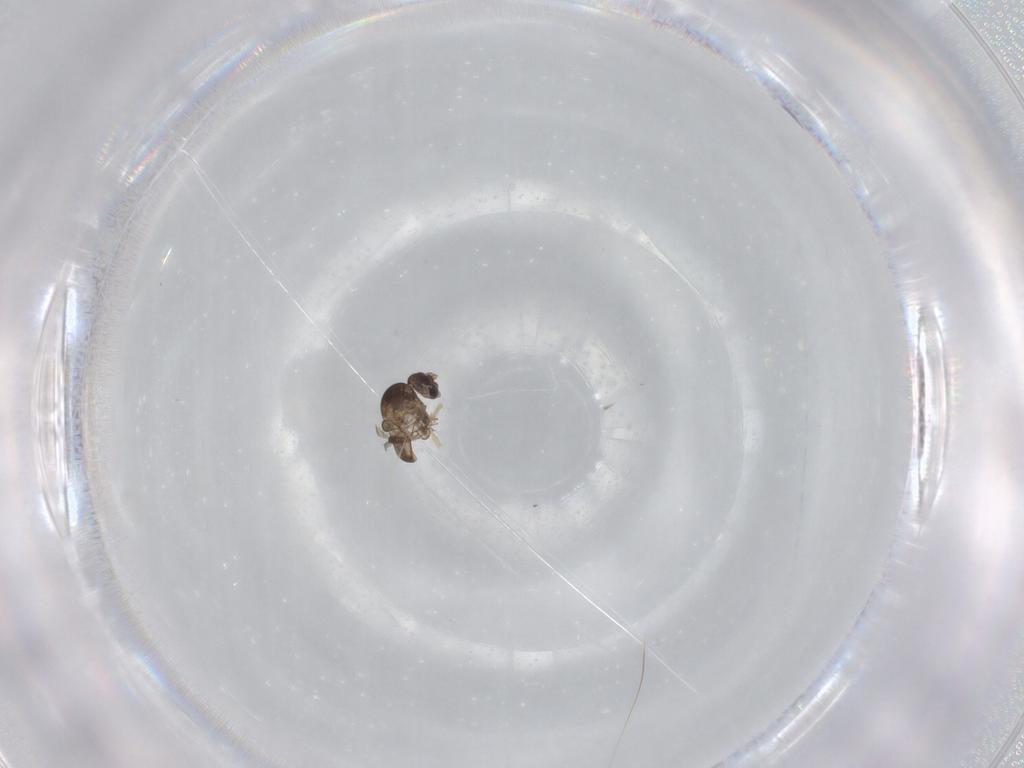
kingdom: Animalia
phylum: Arthropoda
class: Insecta
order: Diptera
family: Chironomidae
